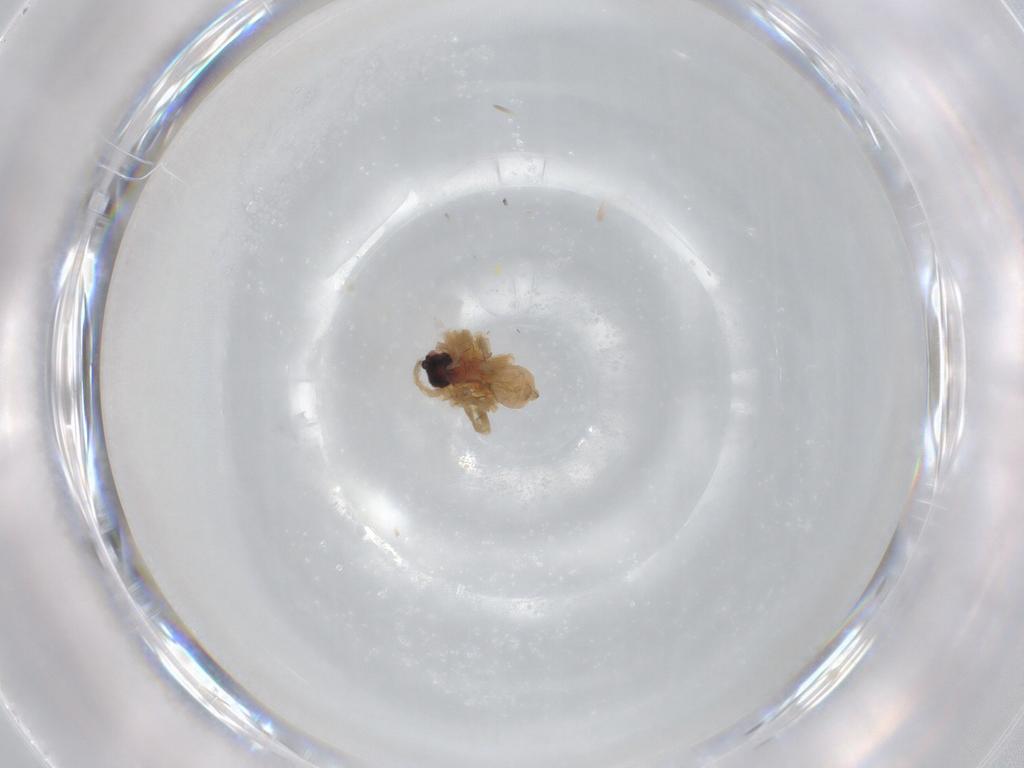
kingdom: Animalia
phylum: Arthropoda
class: Arachnida
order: Araneae
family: Lycosidae
